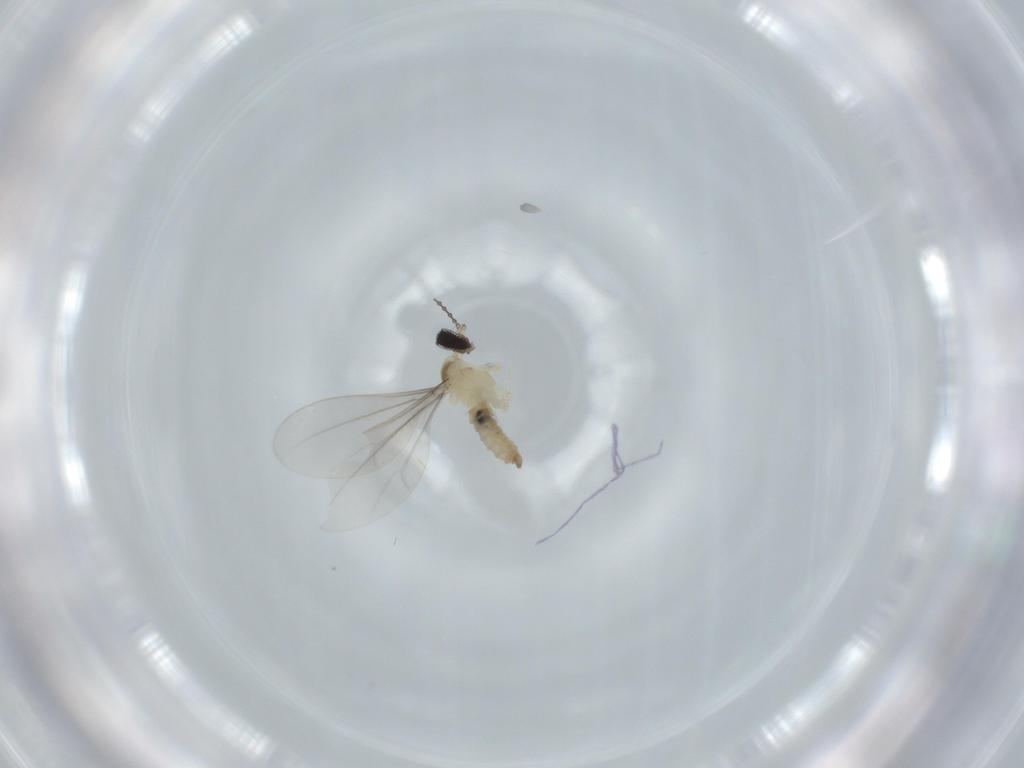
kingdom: Animalia
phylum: Arthropoda
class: Insecta
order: Diptera
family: Cecidomyiidae
